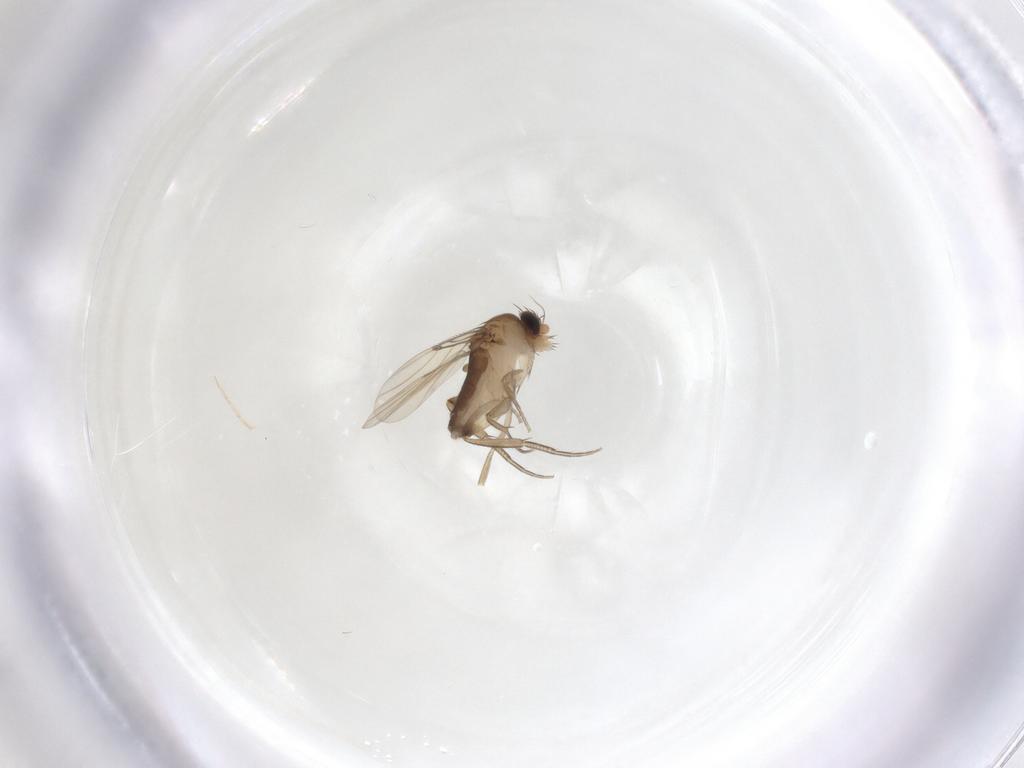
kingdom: Animalia
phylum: Arthropoda
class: Insecta
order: Diptera
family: Phoridae
